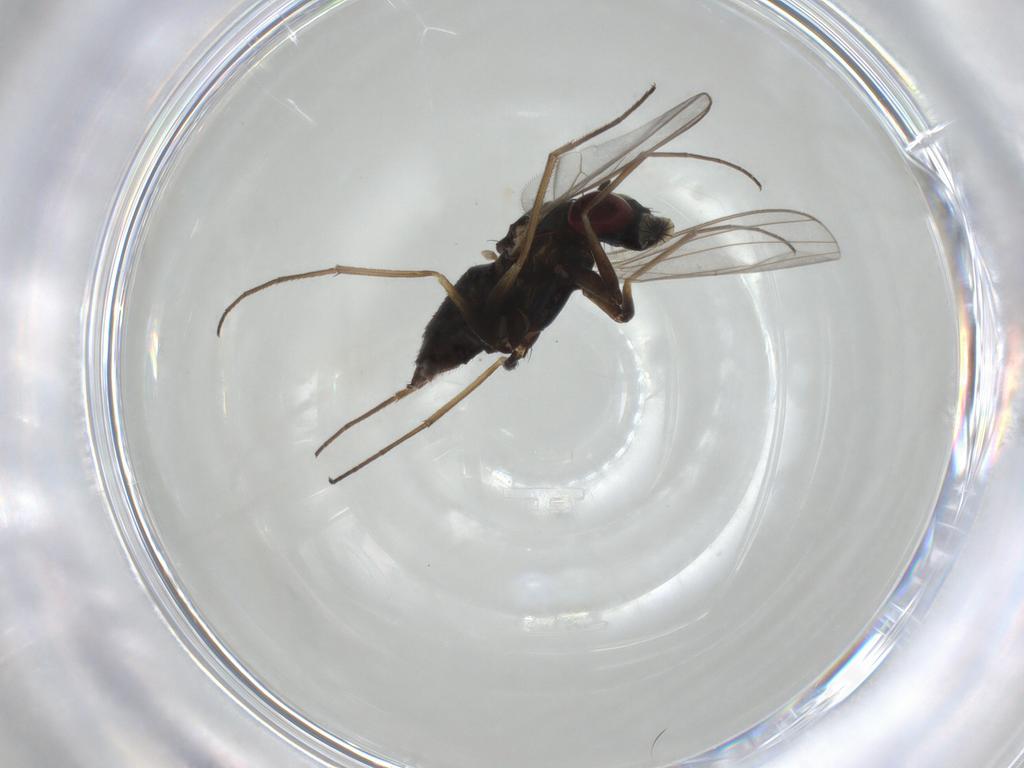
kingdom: Animalia
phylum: Arthropoda
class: Insecta
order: Diptera
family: Dolichopodidae
